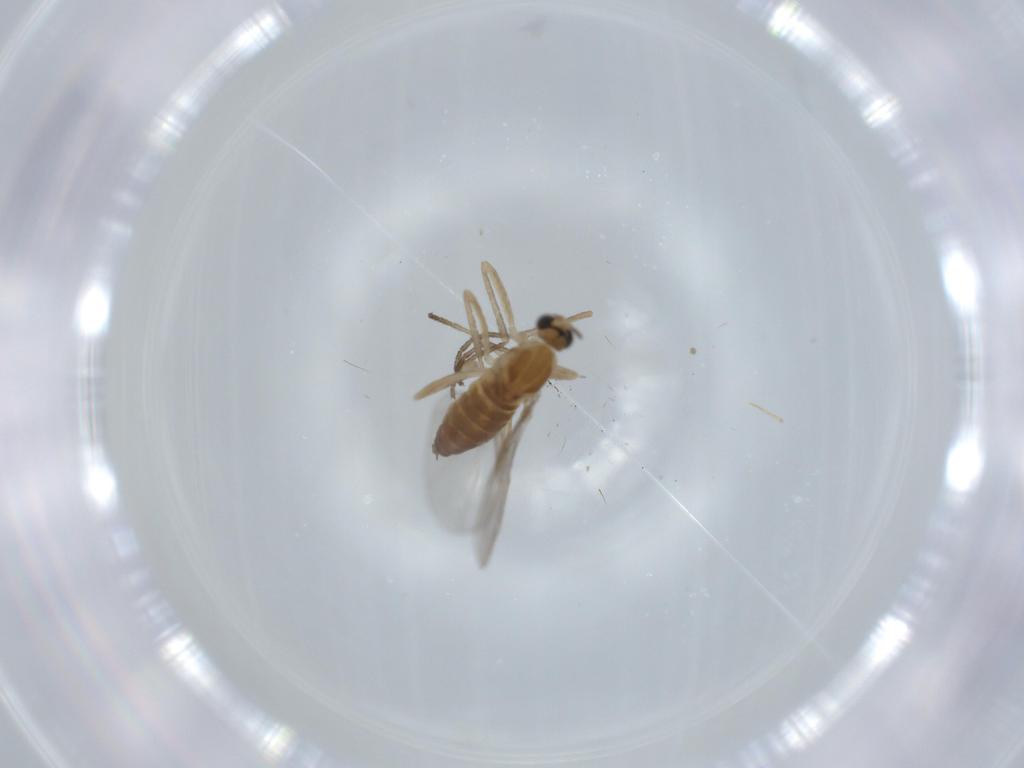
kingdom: Animalia
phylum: Arthropoda
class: Insecta
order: Diptera
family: Cecidomyiidae
